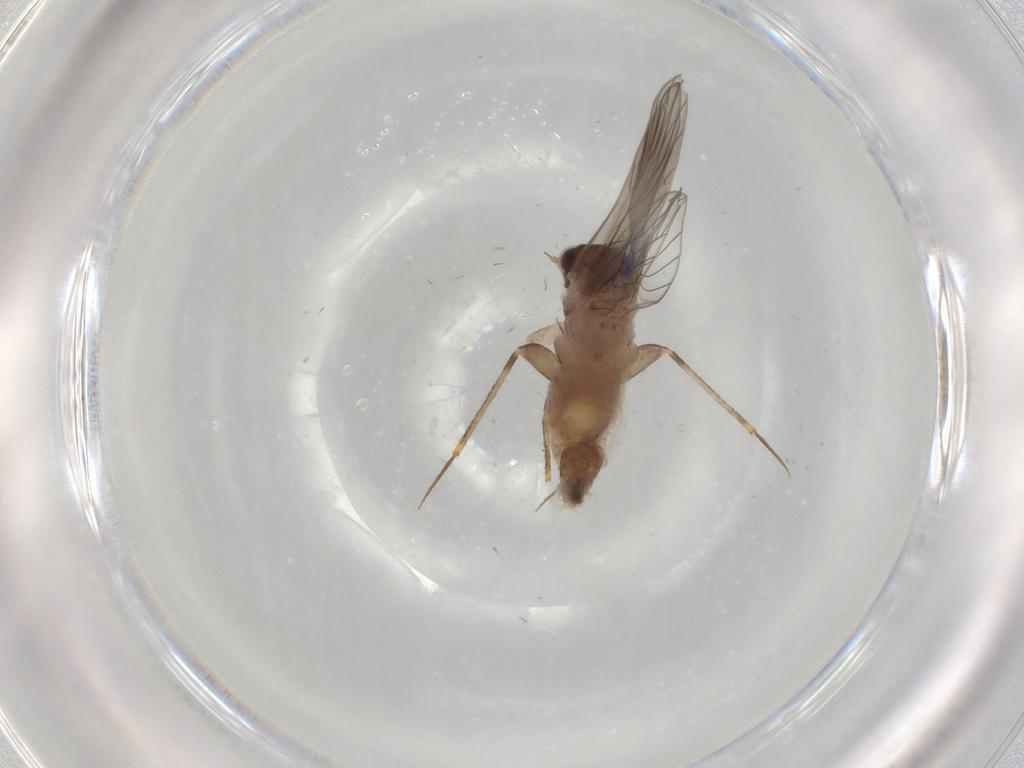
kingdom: Animalia
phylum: Arthropoda
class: Insecta
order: Psocodea
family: Lepidopsocidae
